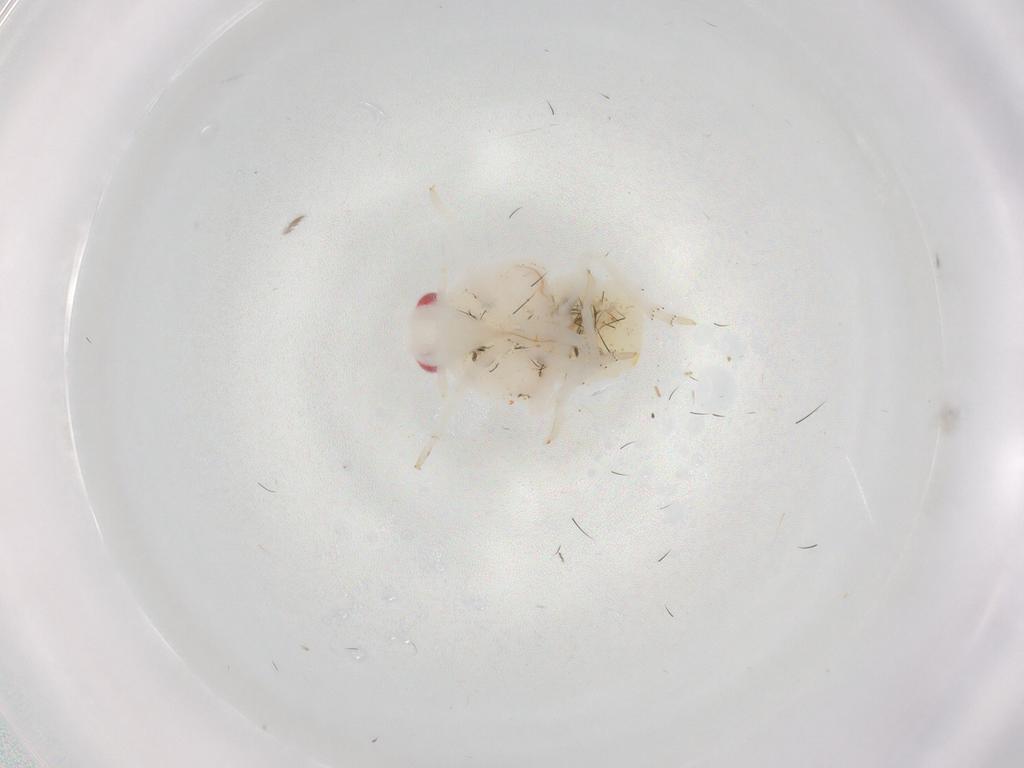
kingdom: Animalia
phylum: Arthropoda
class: Insecta
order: Hemiptera
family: Flatidae
